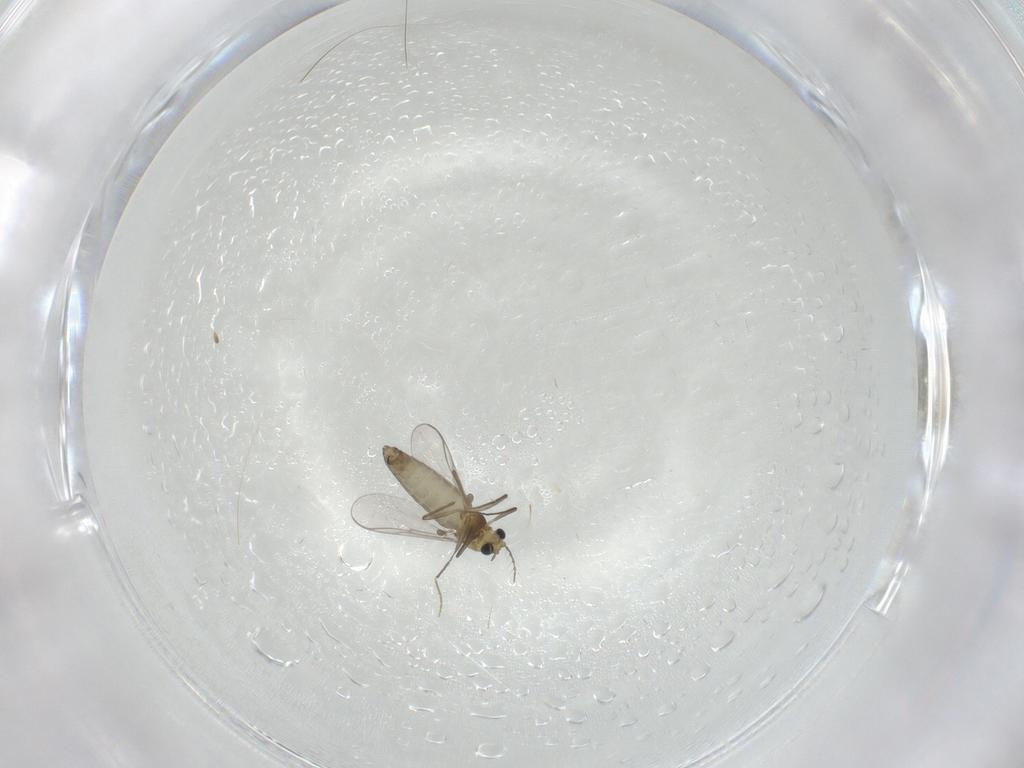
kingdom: Animalia
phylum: Arthropoda
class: Insecta
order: Diptera
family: Chironomidae
